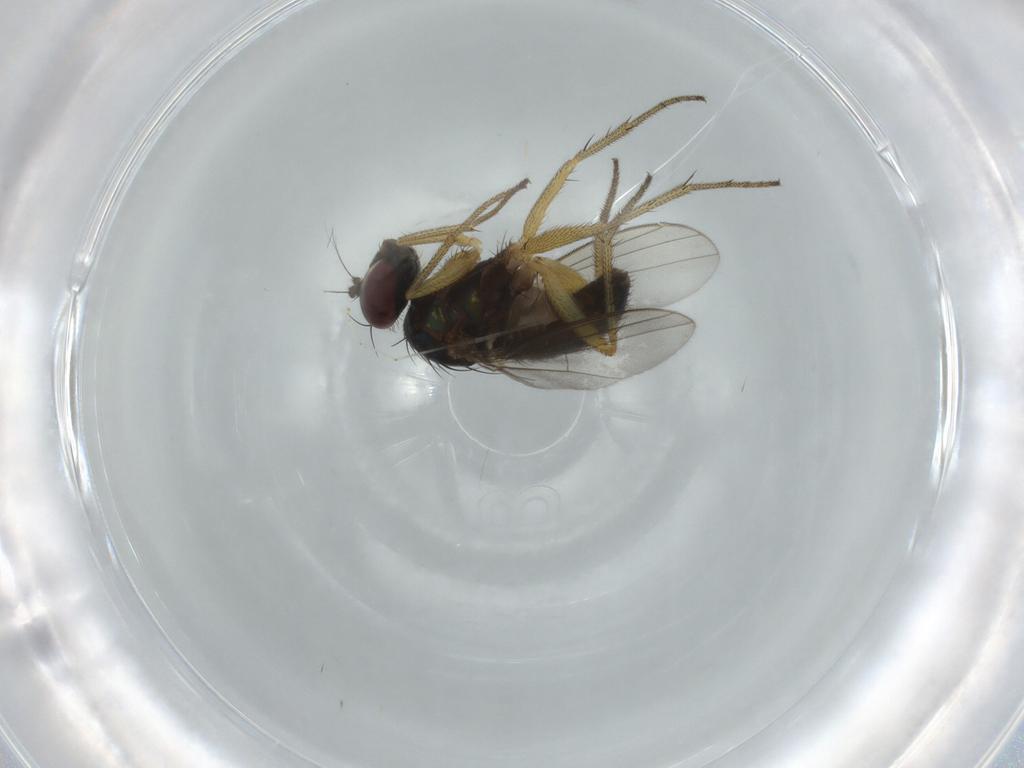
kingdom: Animalia
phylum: Arthropoda
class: Insecta
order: Diptera
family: Cecidomyiidae
